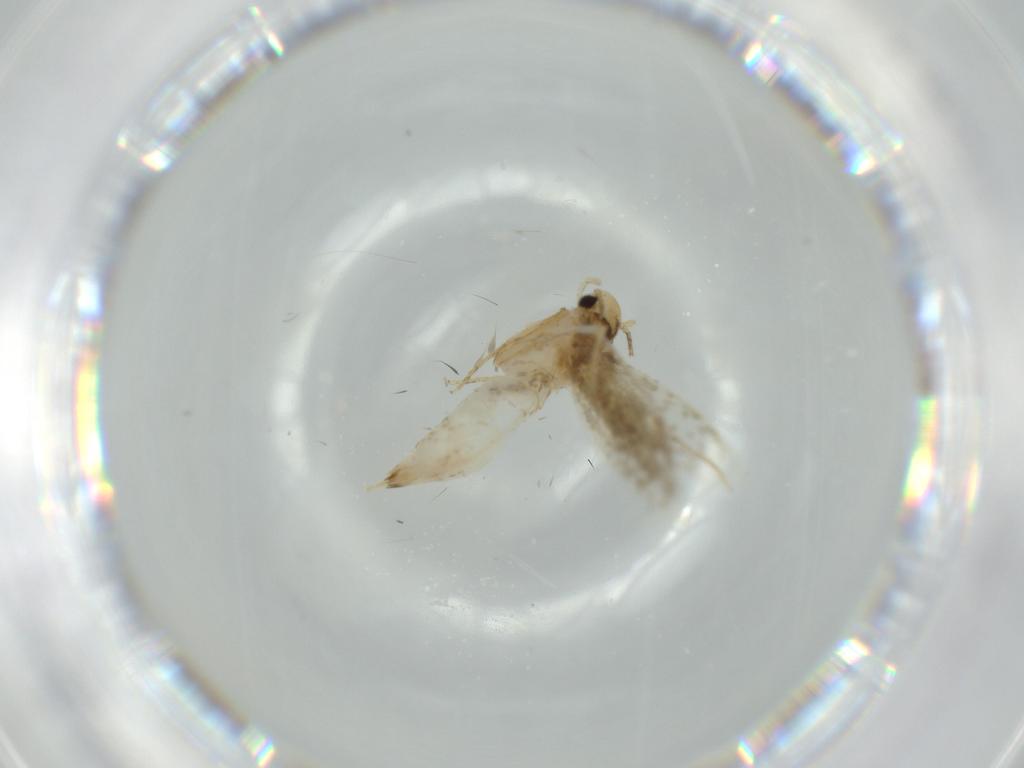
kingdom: Animalia
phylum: Arthropoda
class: Insecta
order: Lepidoptera
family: Tineidae
